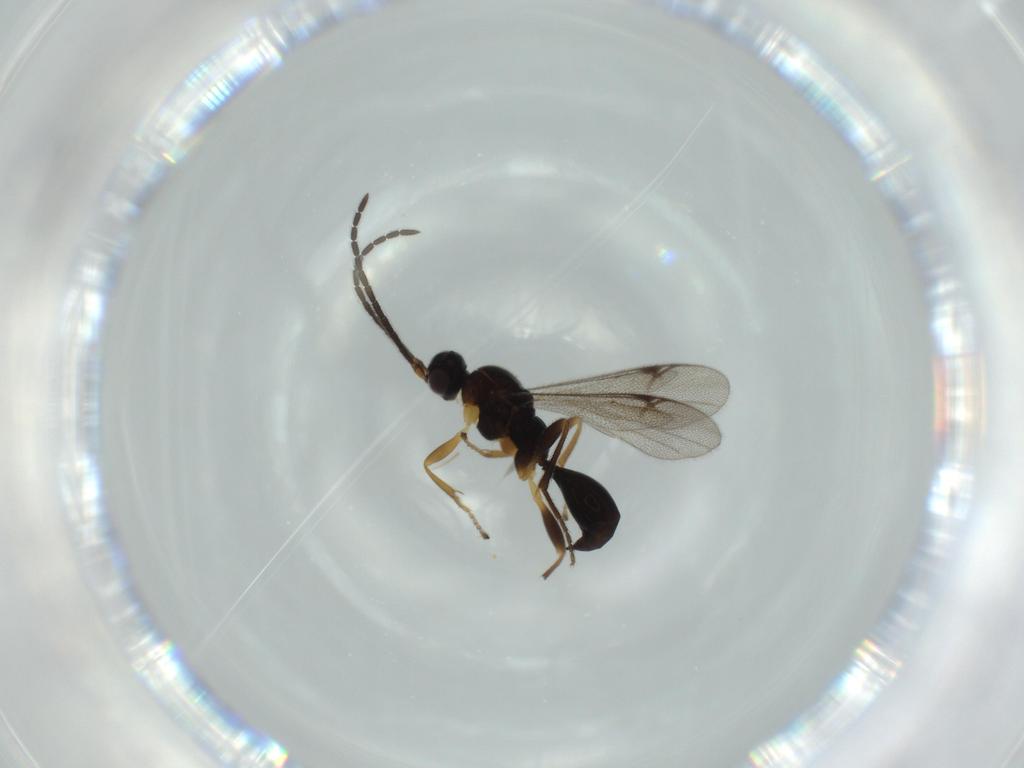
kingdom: Animalia
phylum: Arthropoda
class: Insecta
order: Hymenoptera
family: Proctotrupidae
